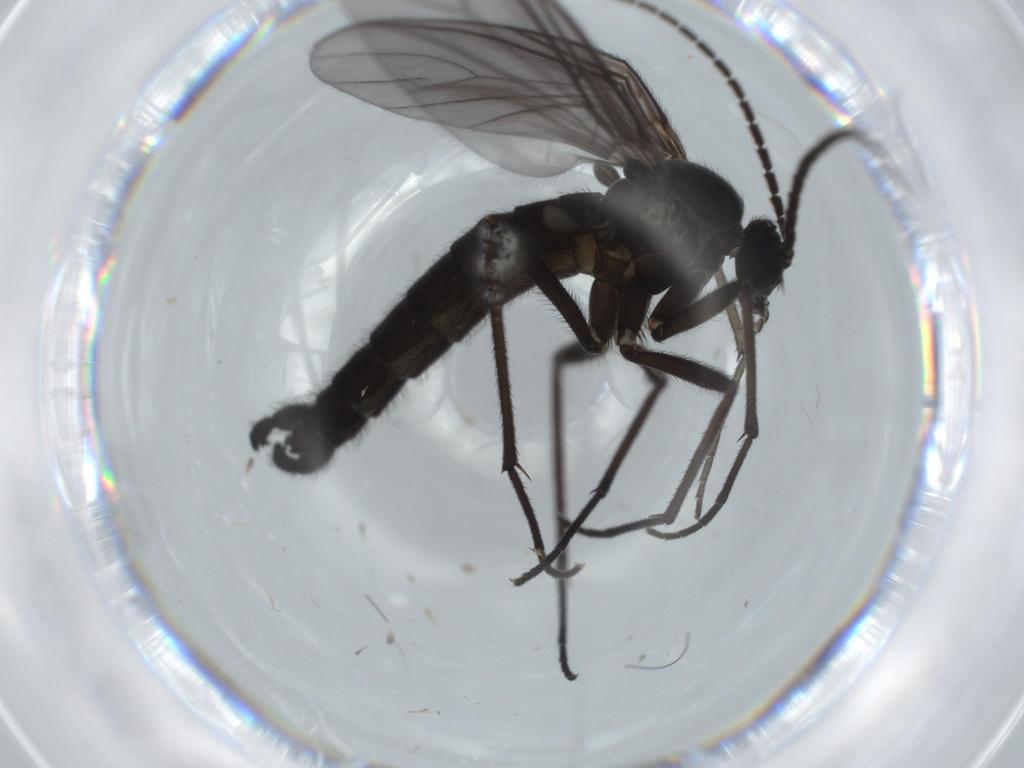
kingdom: Animalia
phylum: Arthropoda
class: Insecta
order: Diptera
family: Sciaridae
